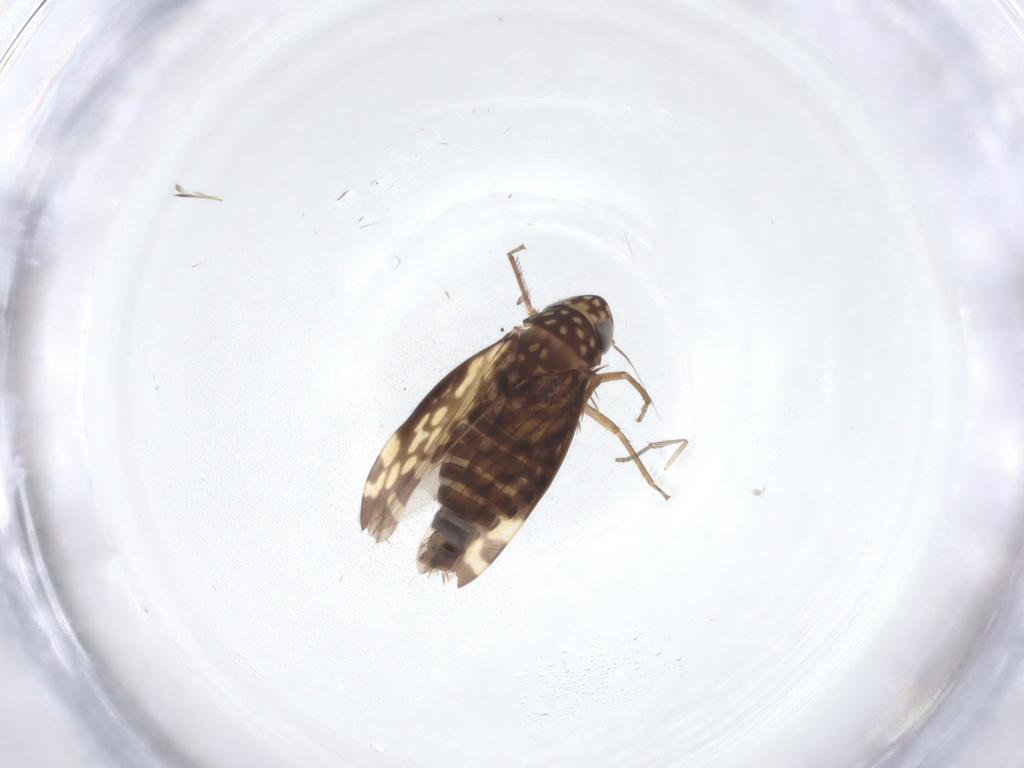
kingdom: Animalia
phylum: Arthropoda
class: Insecta
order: Hemiptera
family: Cicadellidae
